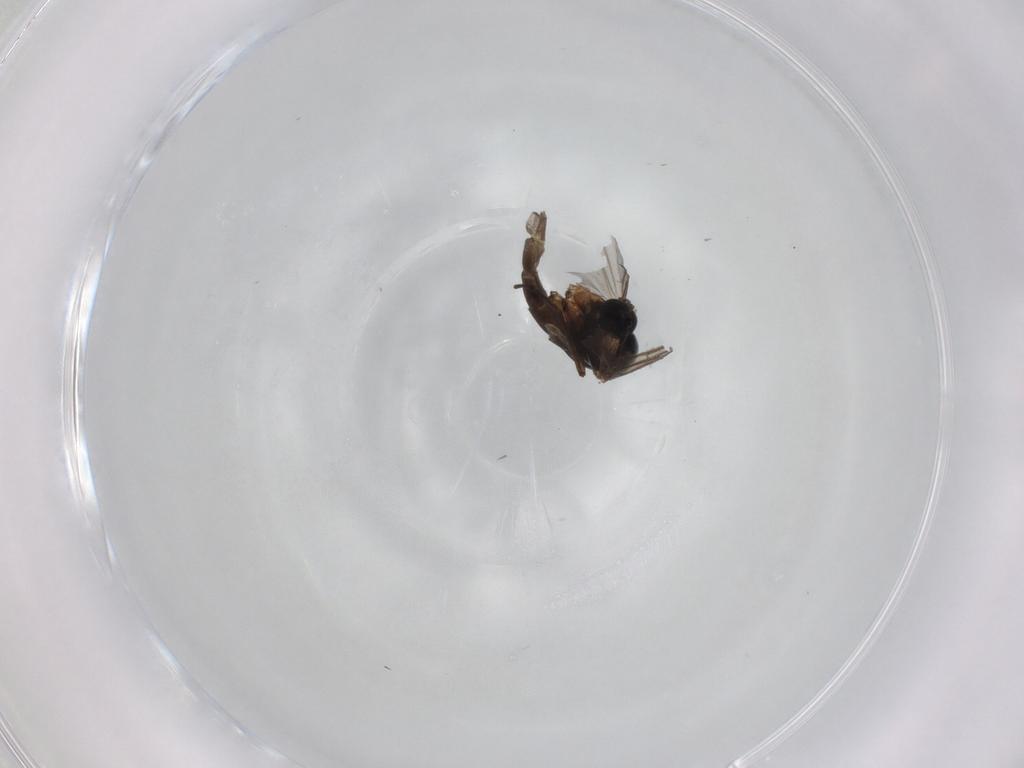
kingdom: Animalia
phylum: Arthropoda
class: Insecta
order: Diptera
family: Sciaridae
